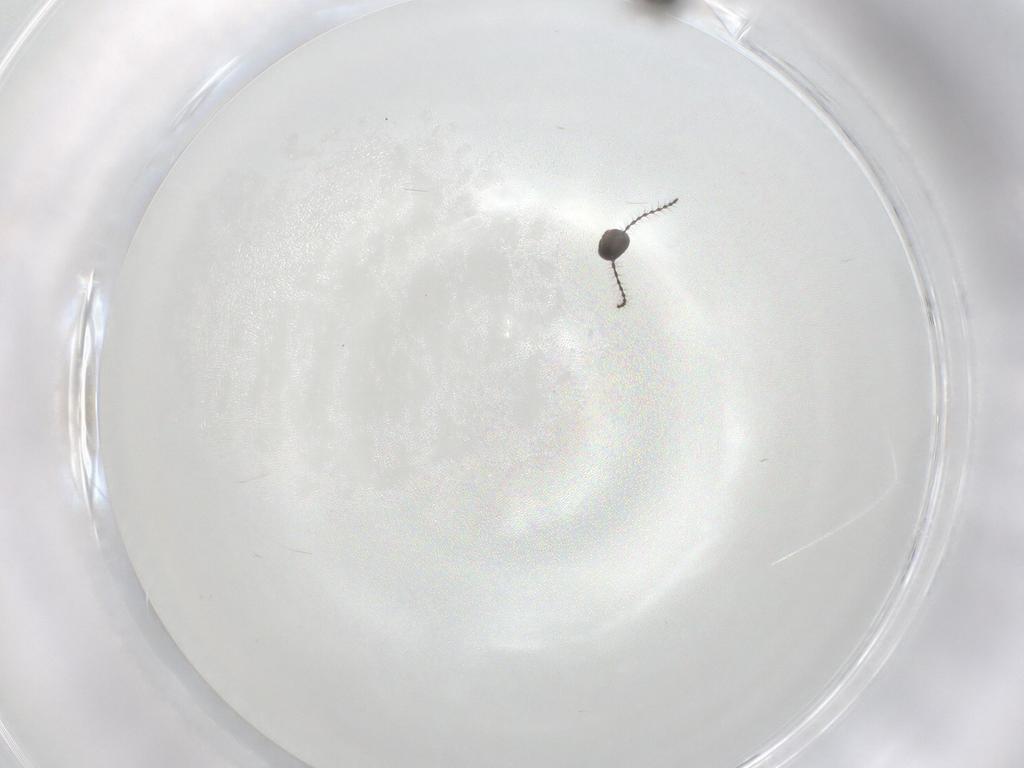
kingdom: Animalia
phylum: Arthropoda
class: Insecta
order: Hymenoptera
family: Scelionidae
